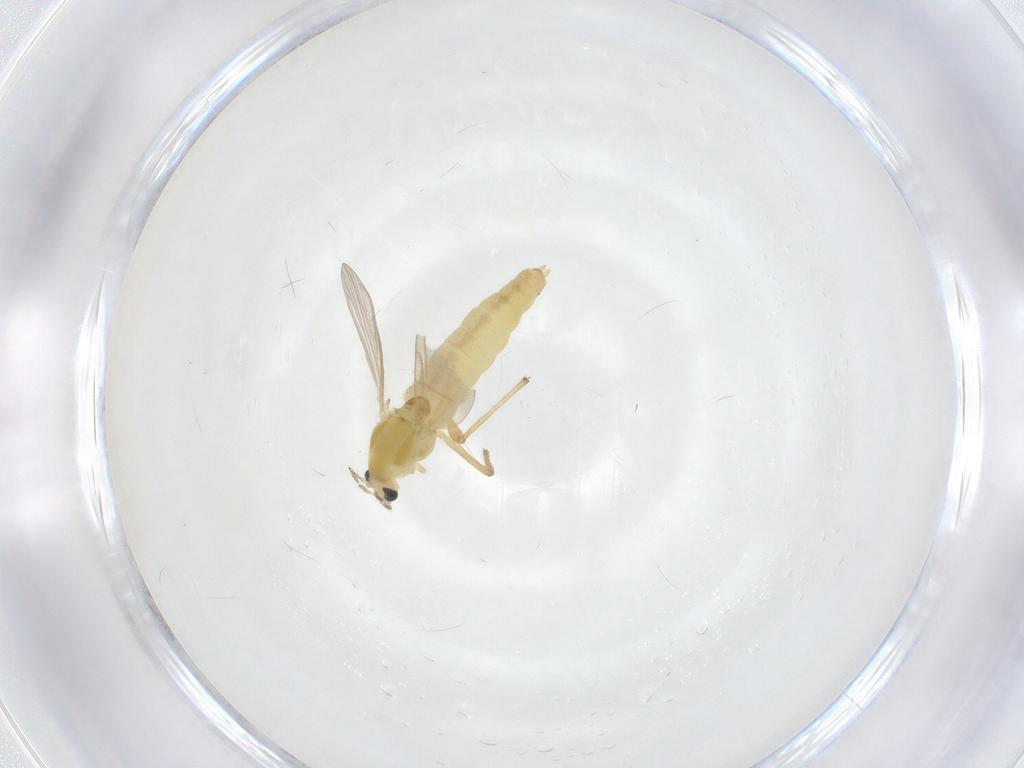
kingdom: Animalia
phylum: Arthropoda
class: Insecta
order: Diptera
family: Chironomidae
